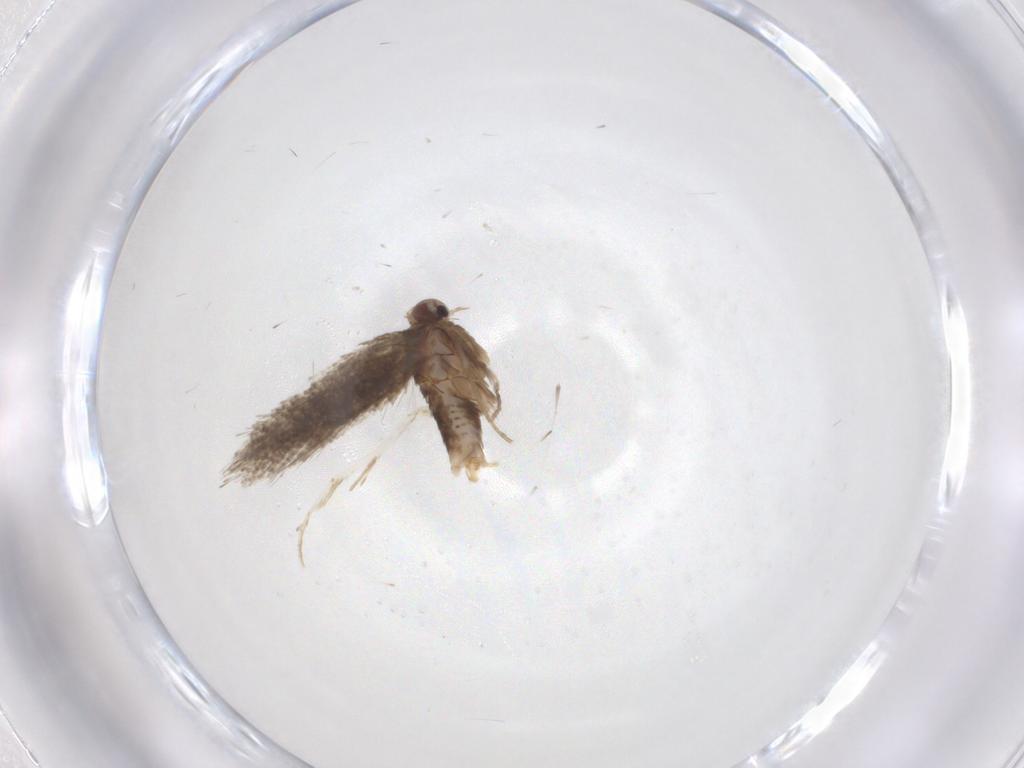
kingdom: Animalia
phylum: Arthropoda
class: Insecta
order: Lepidoptera
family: Psychidae
